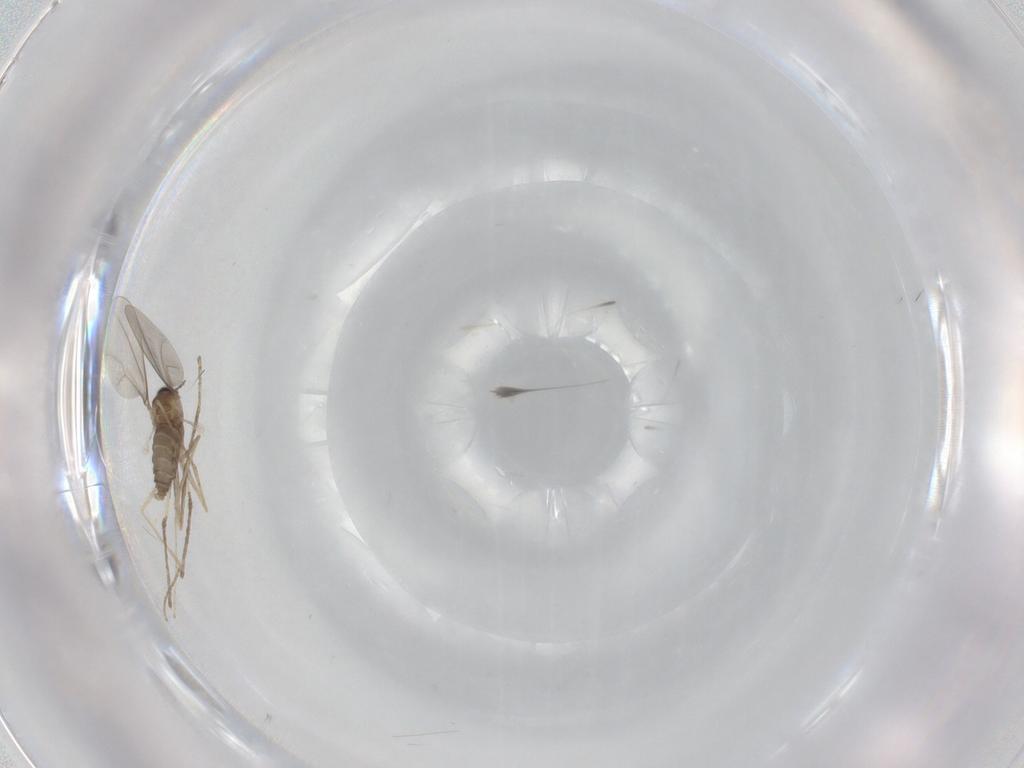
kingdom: Animalia
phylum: Arthropoda
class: Insecta
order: Diptera
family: Cecidomyiidae
